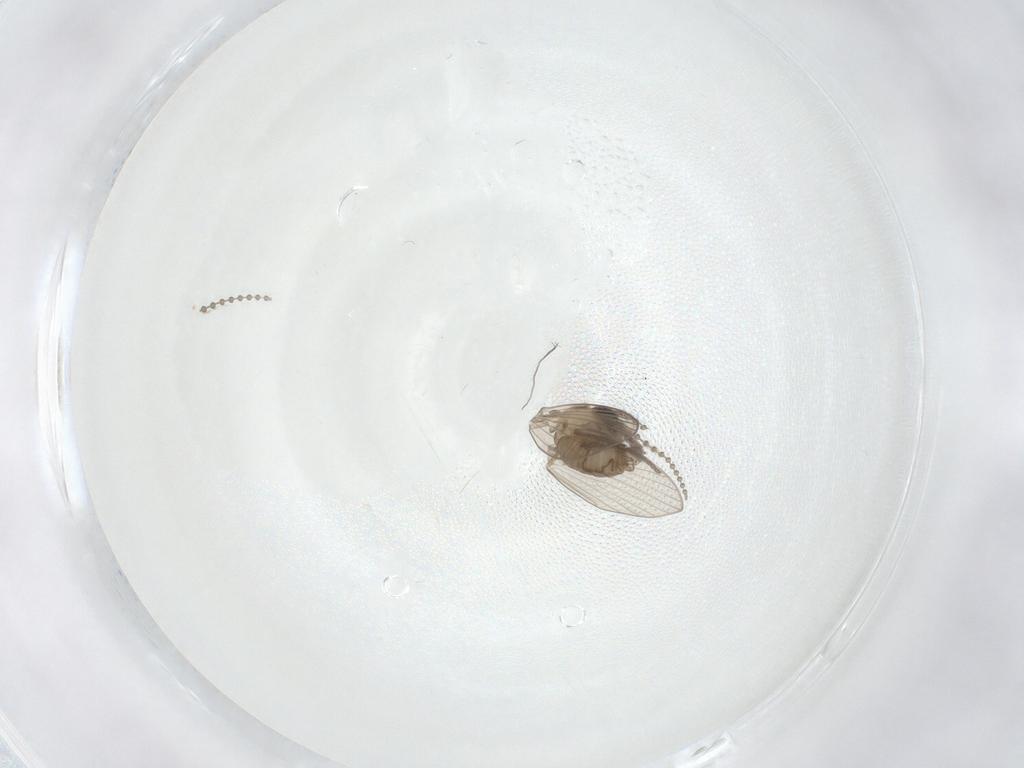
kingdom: Animalia
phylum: Arthropoda
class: Insecta
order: Diptera
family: Psychodidae
